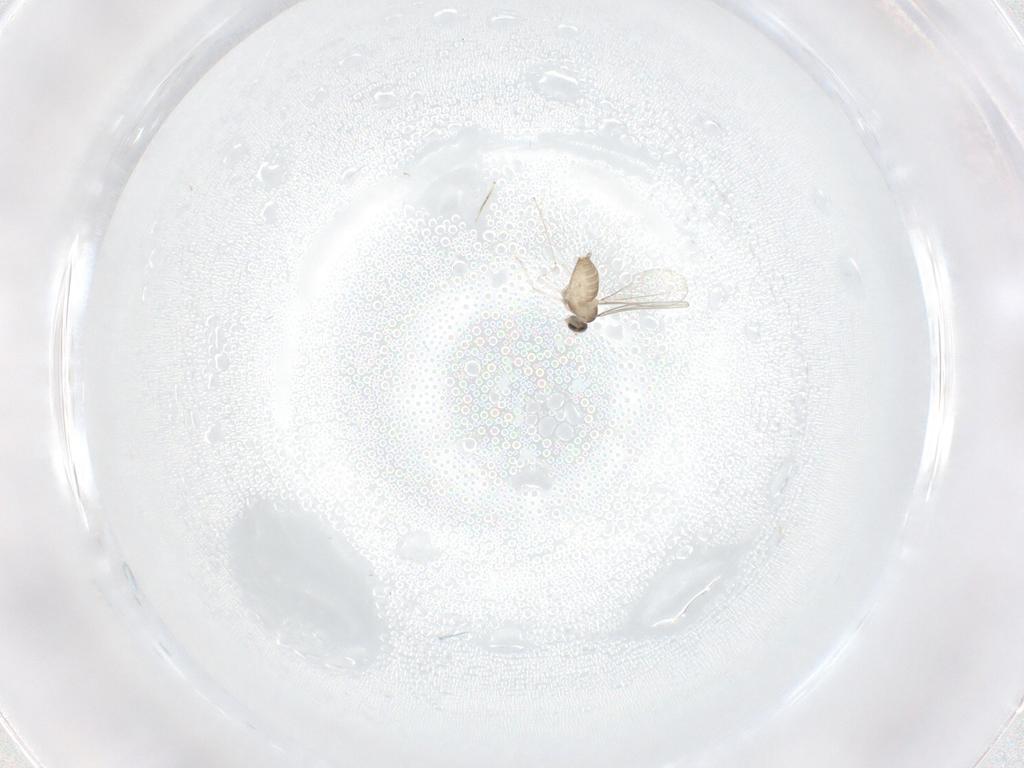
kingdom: Animalia
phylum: Arthropoda
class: Insecta
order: Diptera
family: Cecidomyiidae
